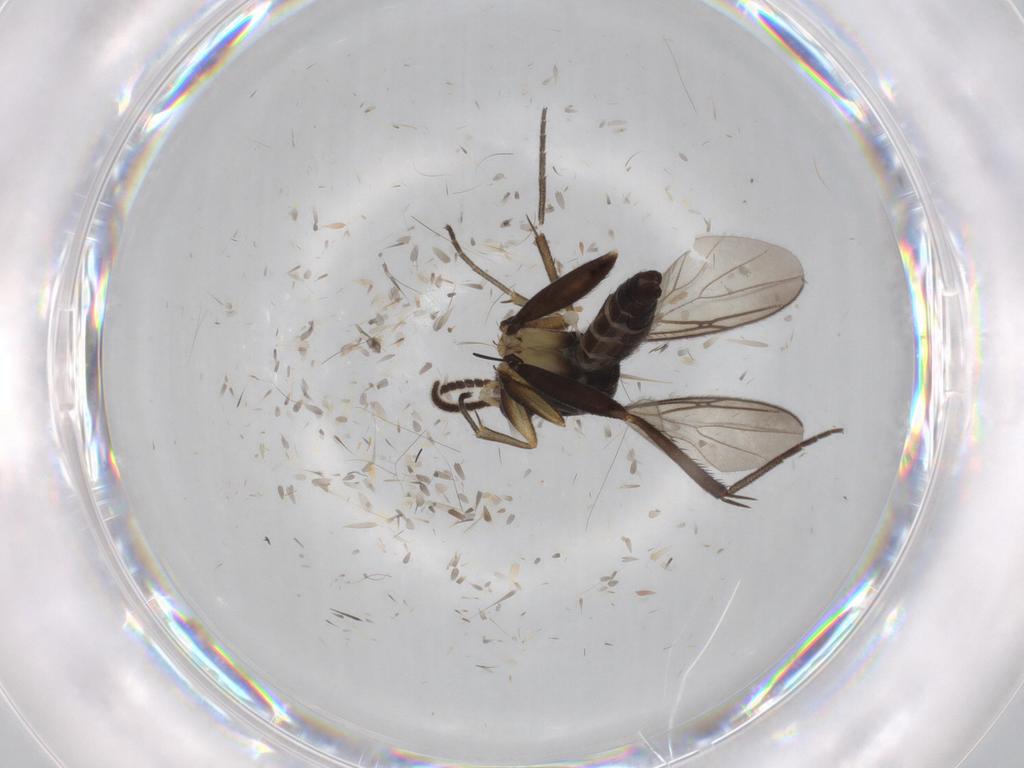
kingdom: Animalia
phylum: Arthropoda
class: Insecta
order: Diptera
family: Mycetophilidae
